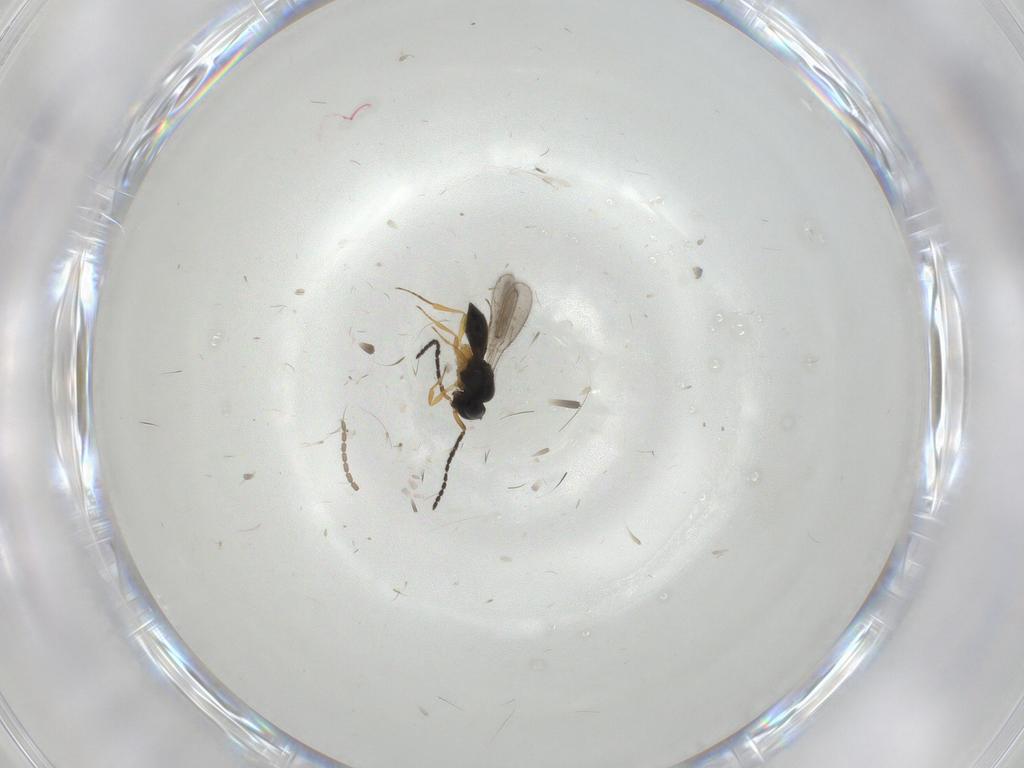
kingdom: Animalia
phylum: Arthropoda
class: Insecta
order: Hymenoptera
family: Scelionidae
